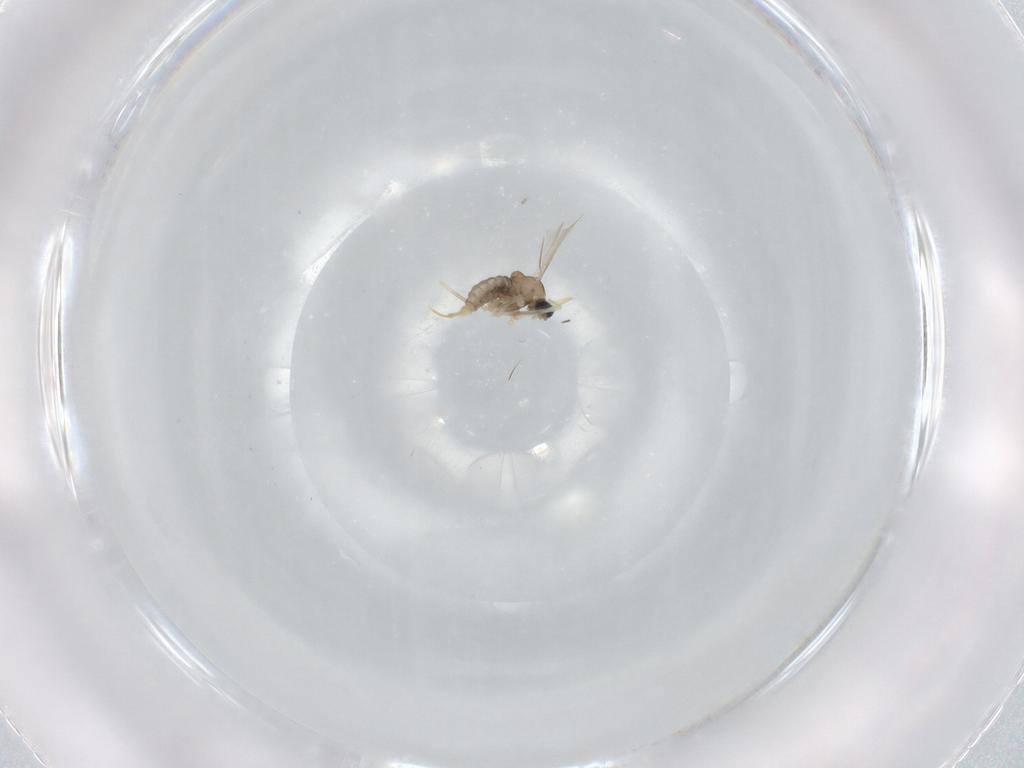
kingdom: Animalia
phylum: Arthropoda
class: Insecta
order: Diptera
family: Cecidomyiidae
